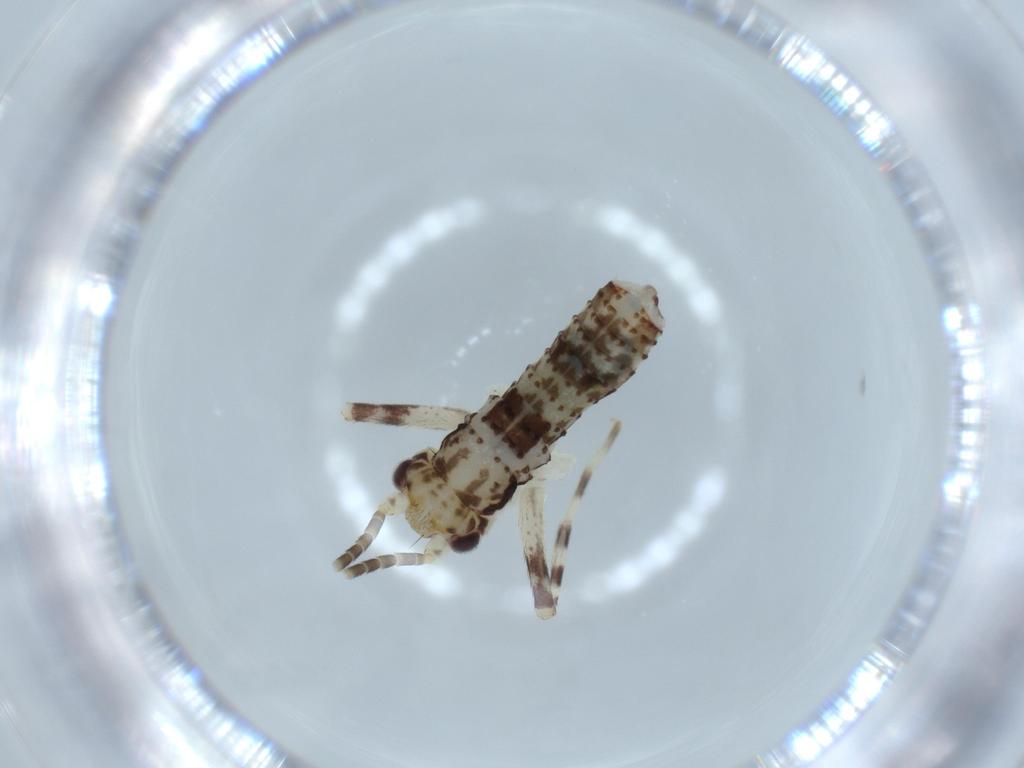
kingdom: Animalia
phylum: Arthropoda
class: Insecta
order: Orthoptera
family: Gryllidae
